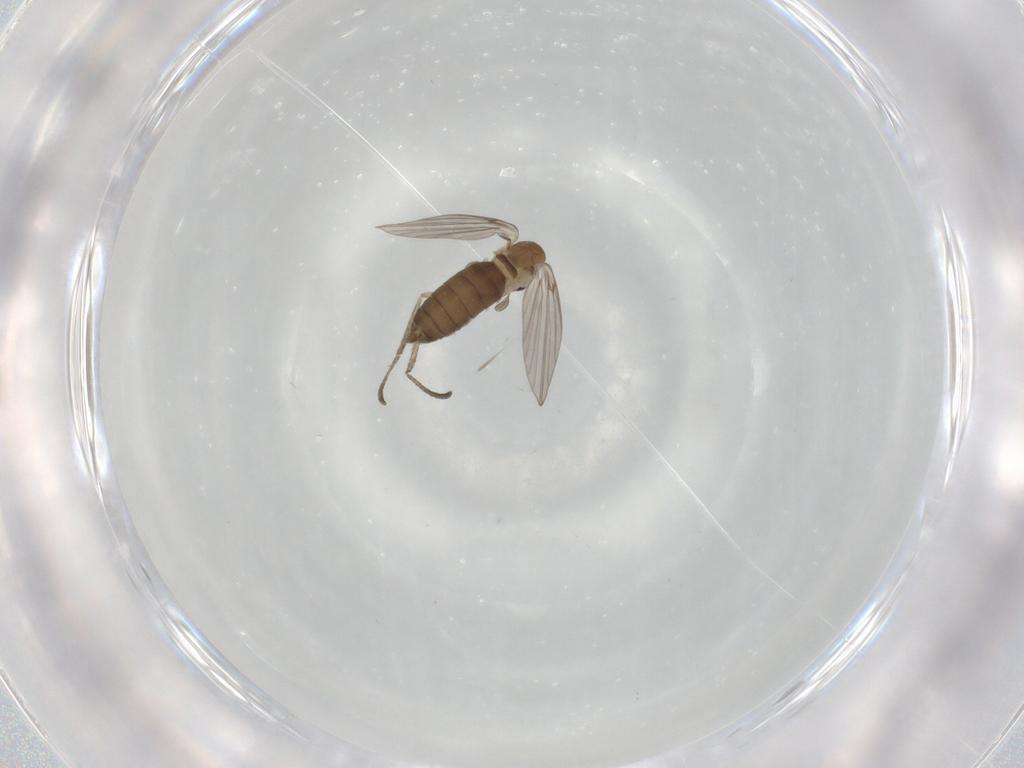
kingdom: Animalia
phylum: Arthropoda
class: Insecta
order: Diptera
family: Psychodidae
